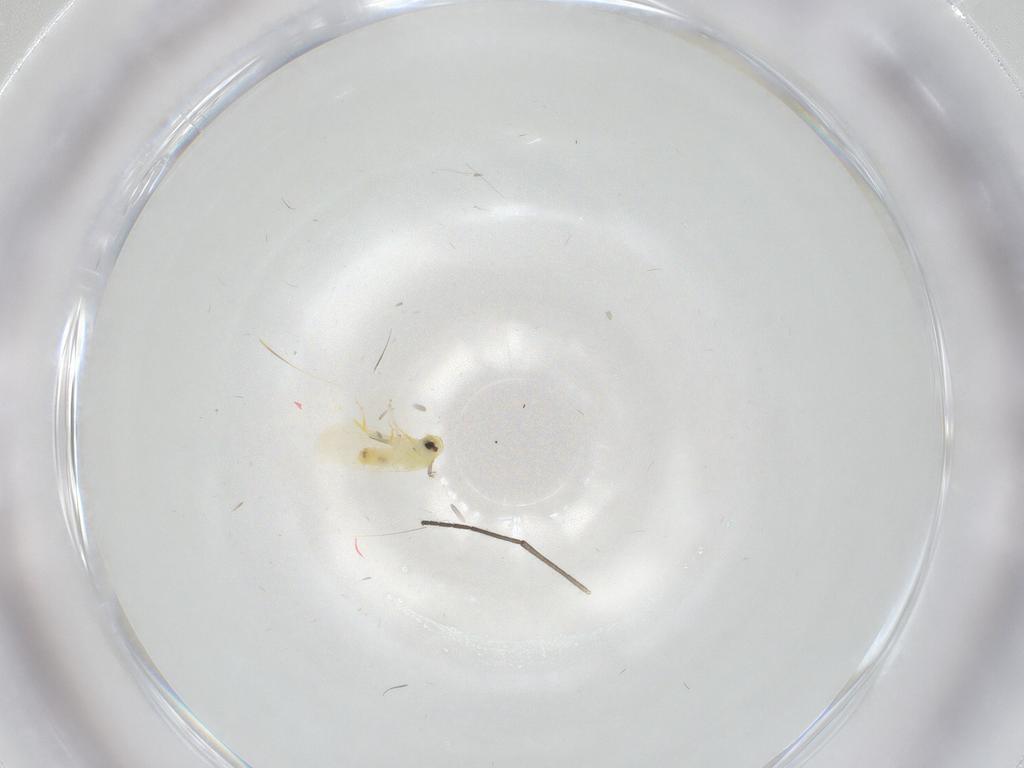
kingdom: Animalia
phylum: Arthropoda
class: Insecta
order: Hemiptera
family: Aleyrodidae
